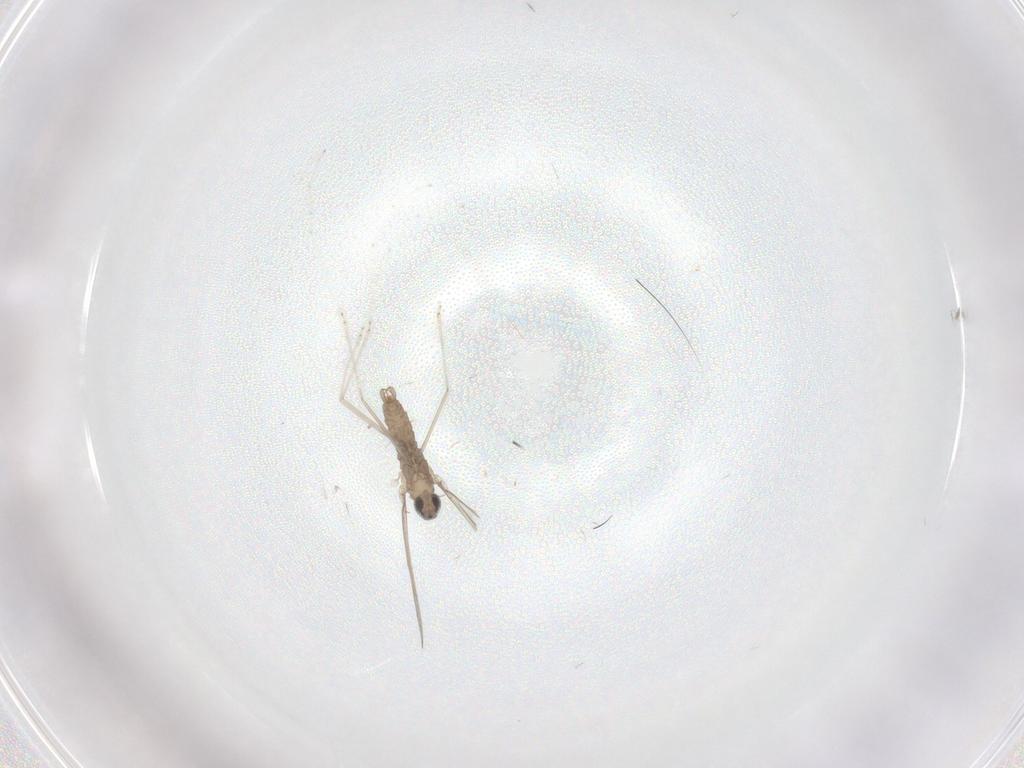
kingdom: Animalia
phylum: Arthropoda
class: Insecta
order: Diptera
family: Cecidomyiidae
